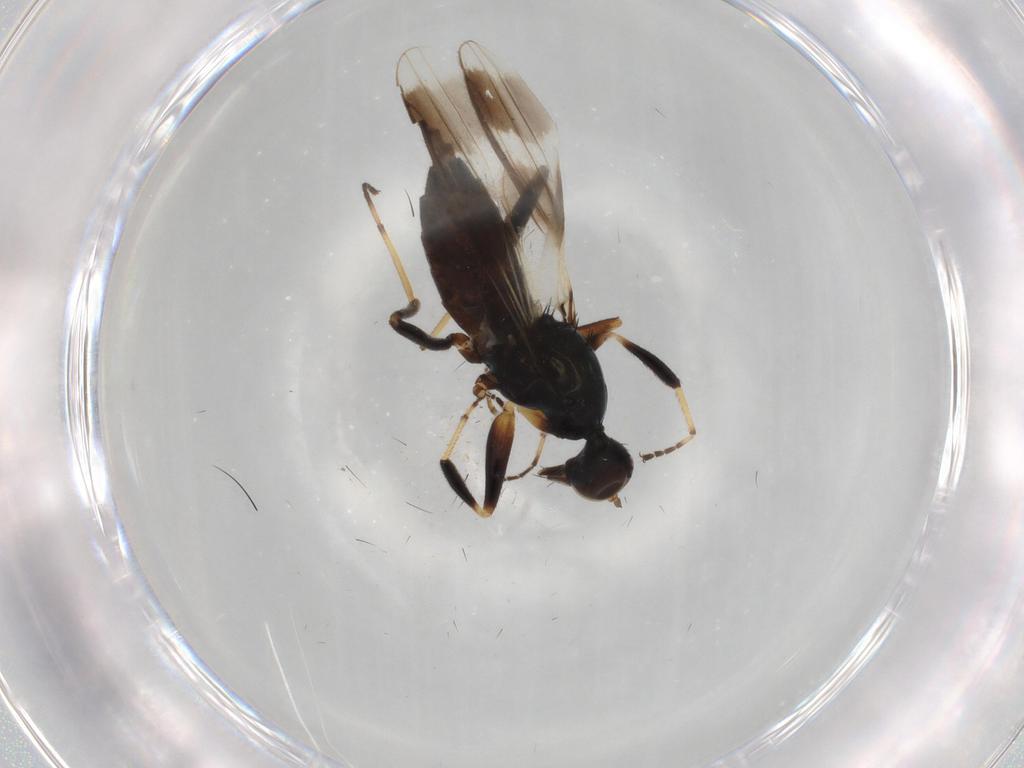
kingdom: Animalia
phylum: Arthropoda
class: Insecta
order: Diptera
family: Hybotidae
